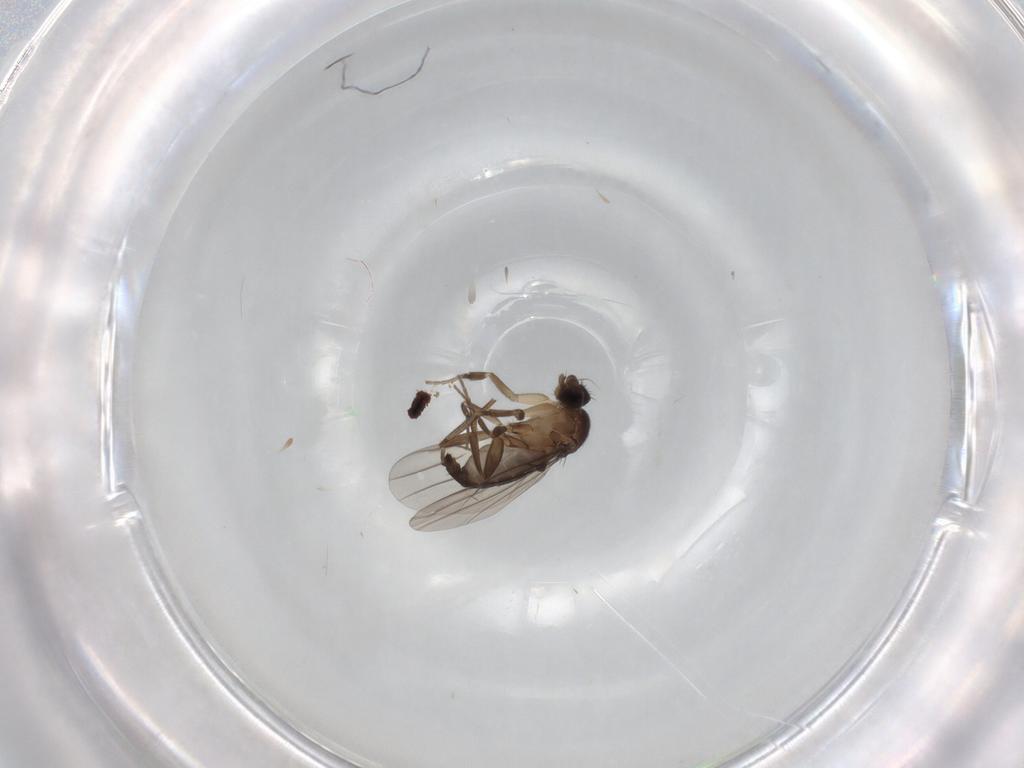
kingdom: Animalia
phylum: Arthropoda
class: Insecta
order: Diptera
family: Phoridae
